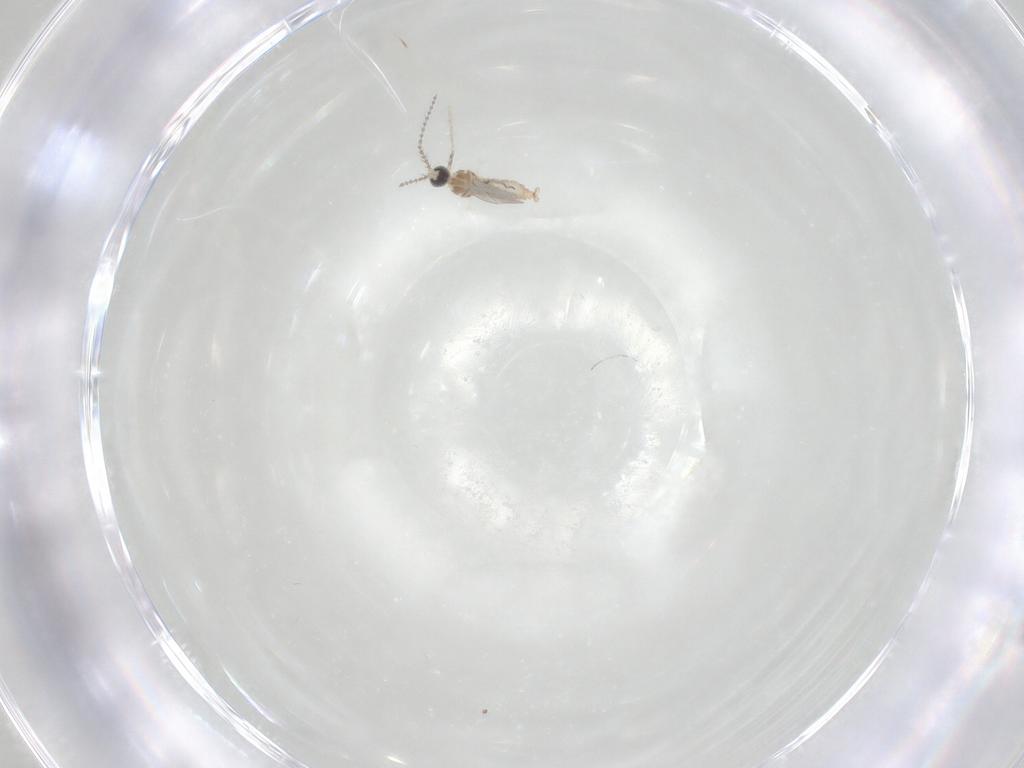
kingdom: Animalia
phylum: Arthropoda
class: Insecta
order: Diptera
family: Cecidomyiidae
